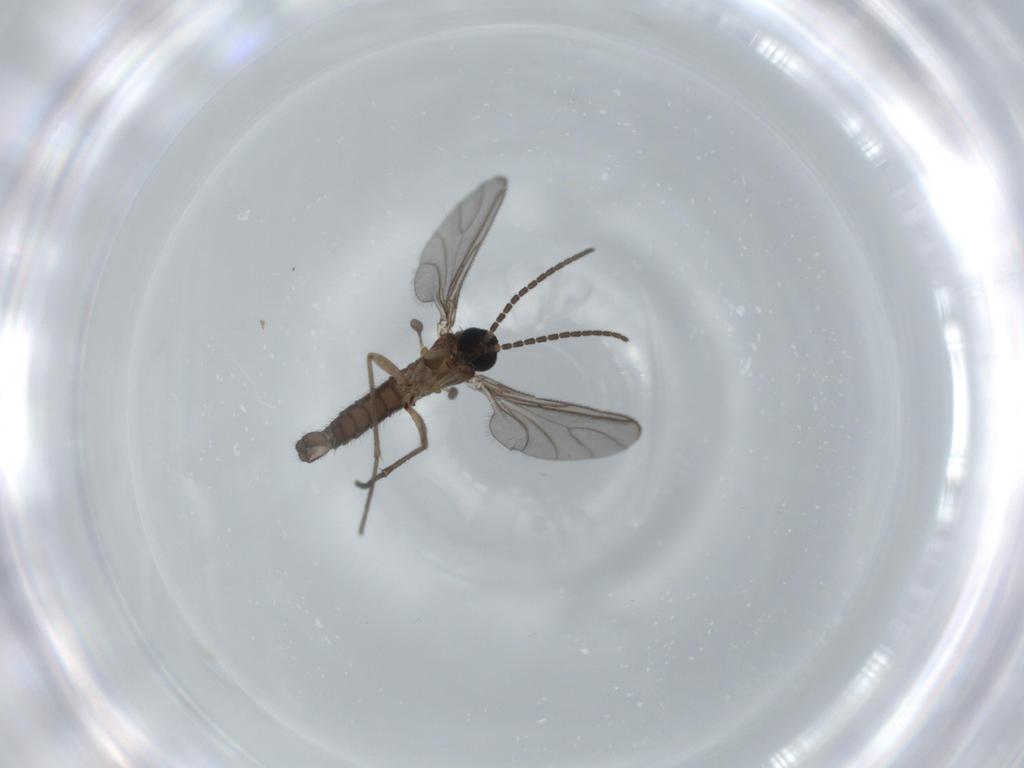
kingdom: Animalia
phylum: Arthropoda
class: Insecta
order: Diptera
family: Sciaridae
